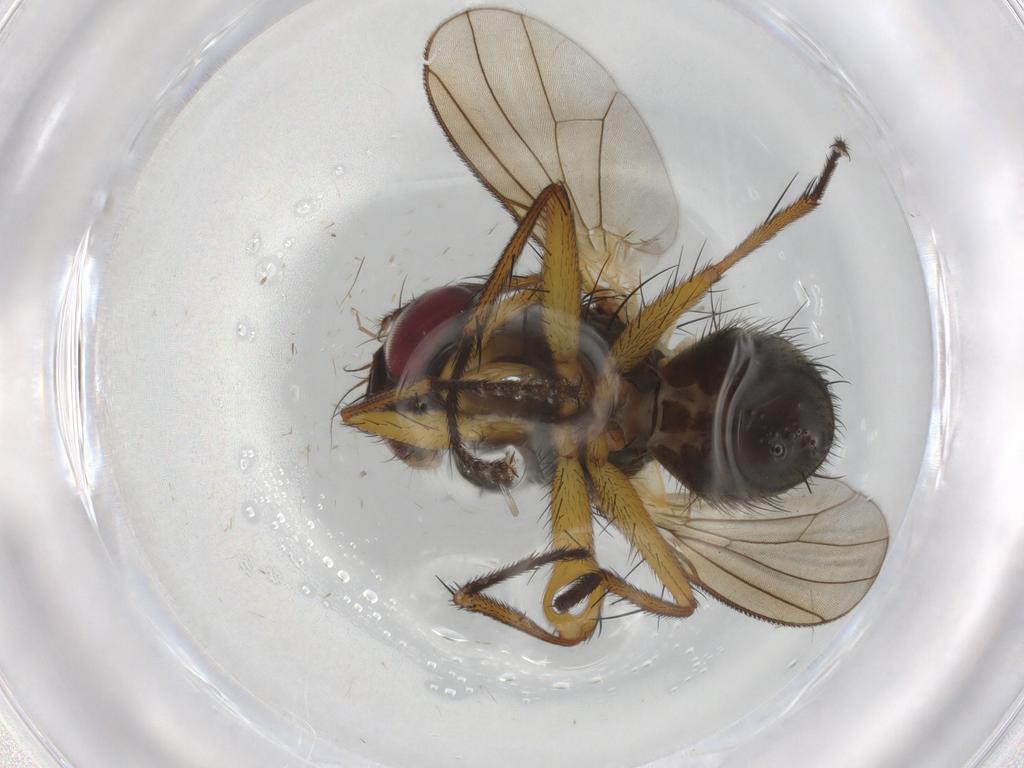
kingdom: Animalia
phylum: Arthropoda
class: Insecta
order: Diptera
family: Muscidae
